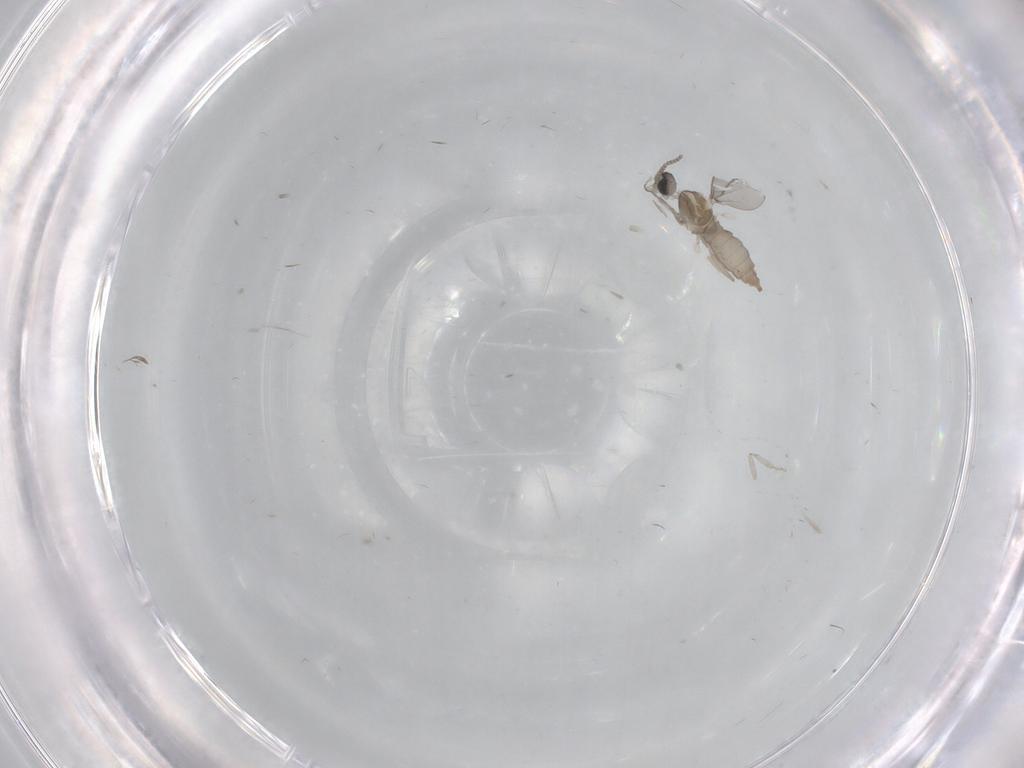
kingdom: Animalia
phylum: Arthropoda
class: Insecta
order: Diptera
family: Cecidomyiidae
